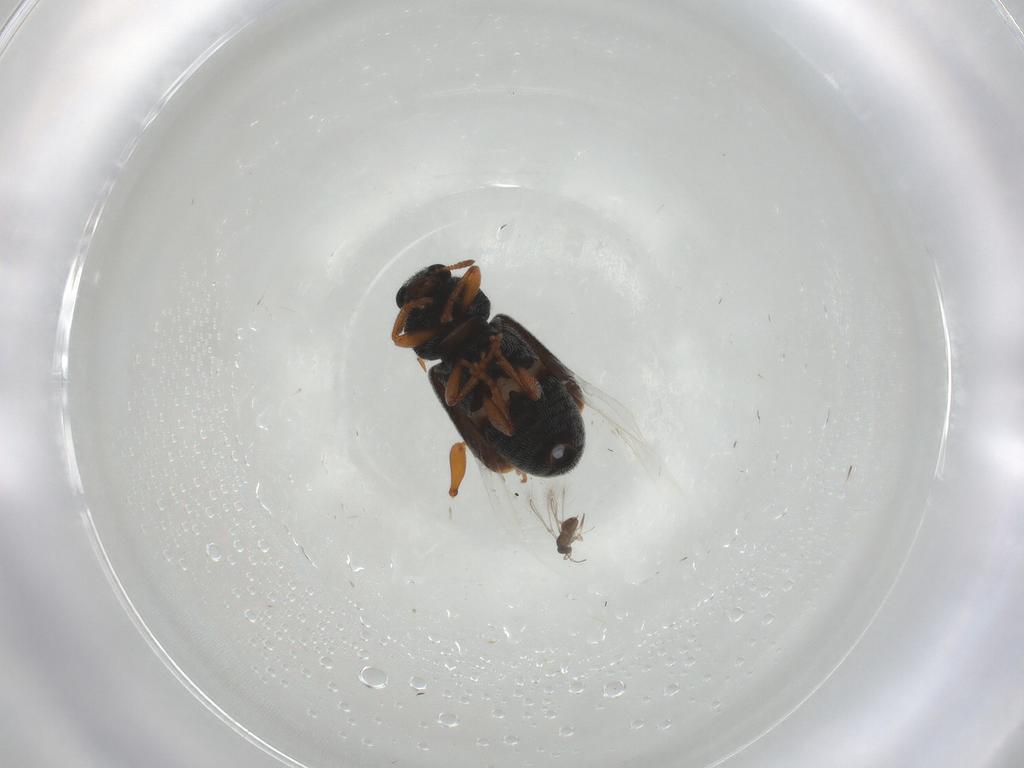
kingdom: Animalia
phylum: Arthropoda
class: Insecta
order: Coleoptera
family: Anthribidae
